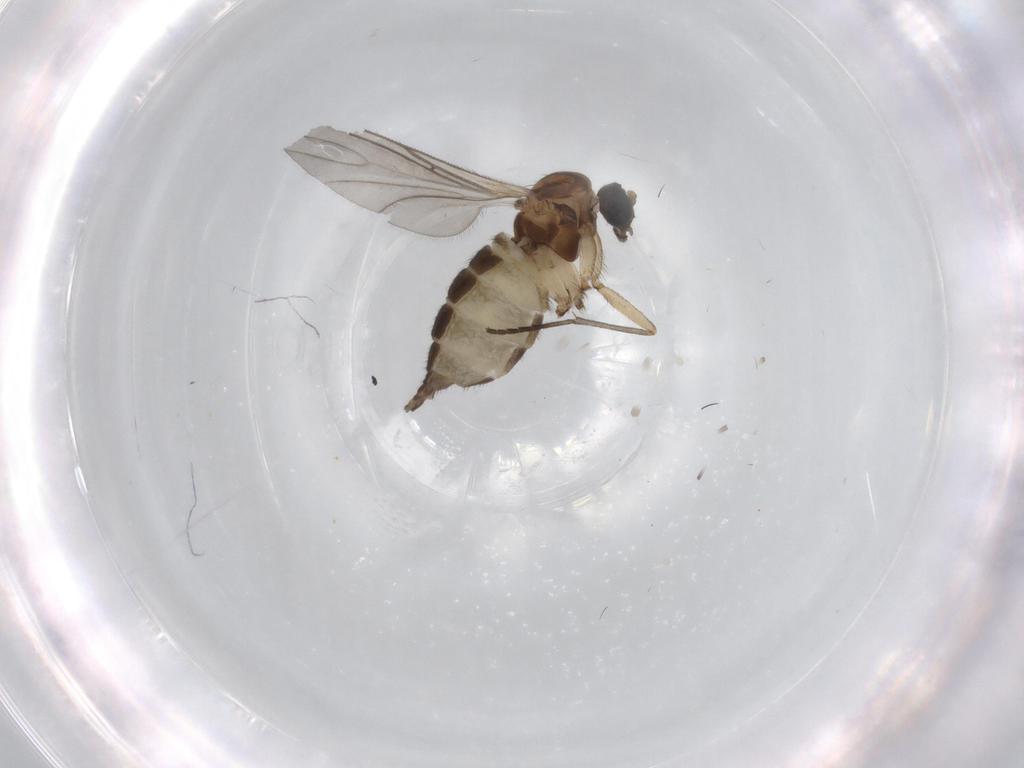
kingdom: Animalia
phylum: Arthropoda
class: Insecta
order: Diptera
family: Sciaridae
